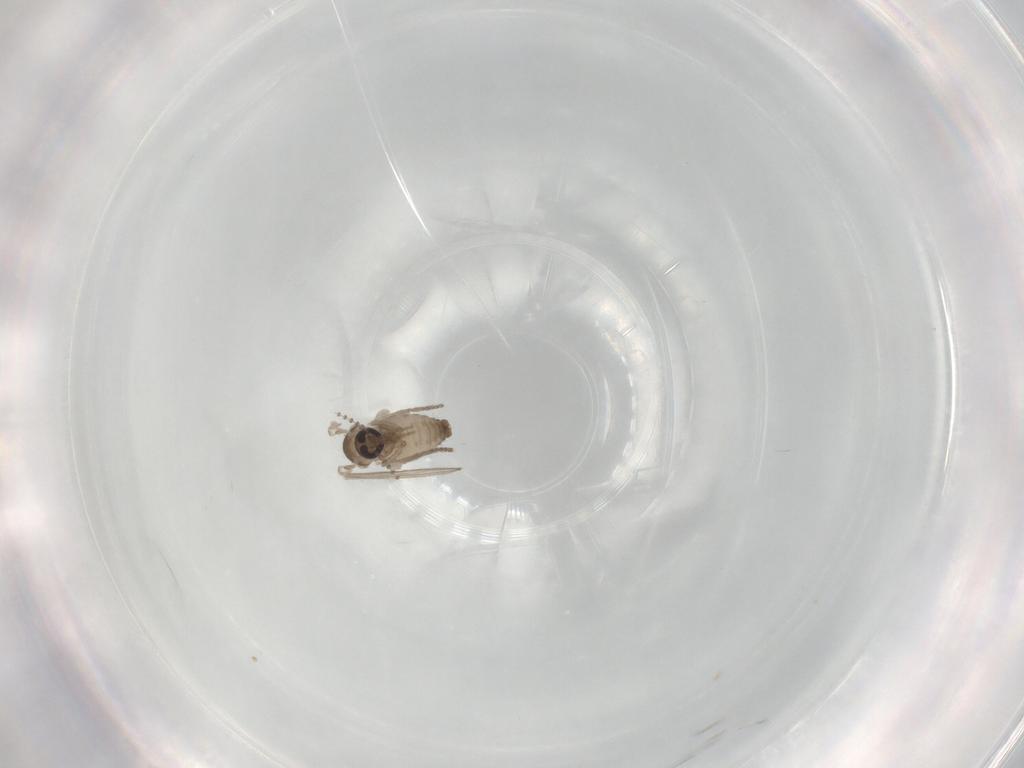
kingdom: Animalia
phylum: Arthropoda
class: Insecta
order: Diptera
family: Psychodidae
